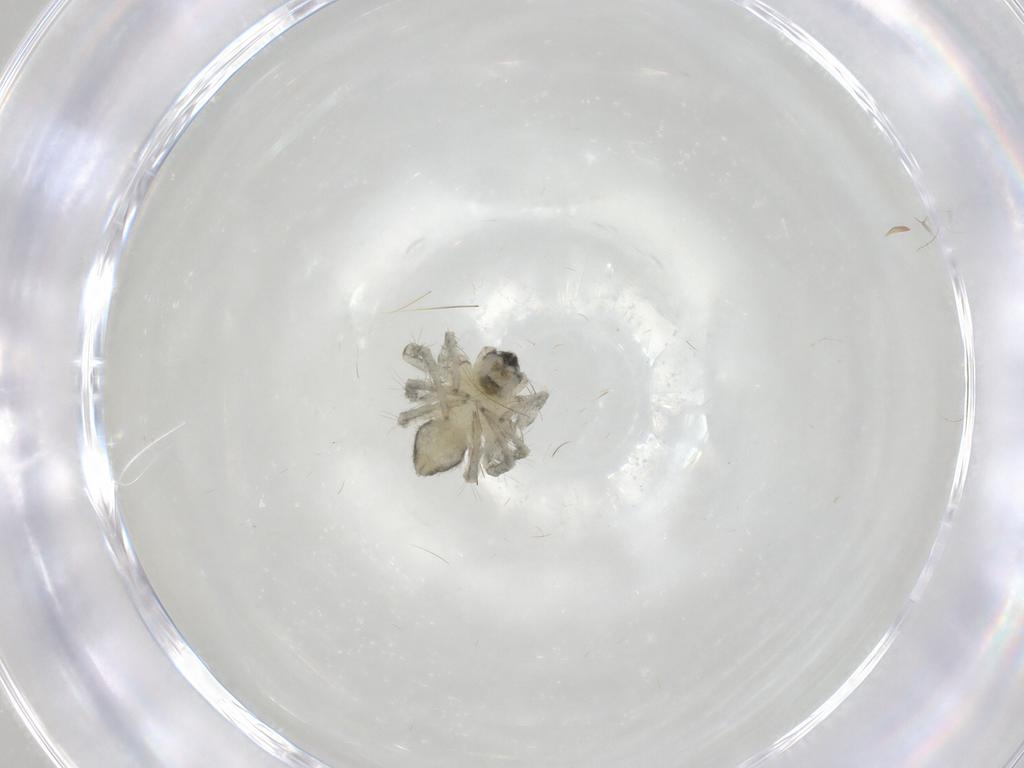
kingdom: Animalia
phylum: Arthropoda
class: Arachnida
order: Araneae
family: Oxyopidae
